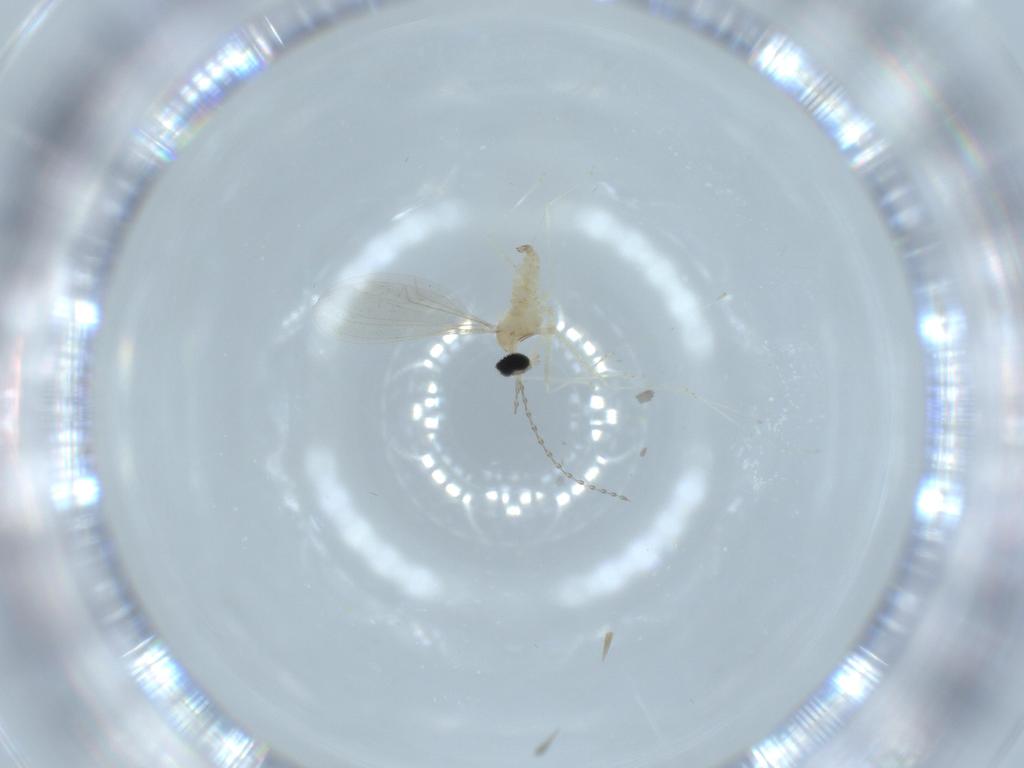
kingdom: Animalia
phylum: Arthropoda
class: Insecta
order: Diptera
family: Cecidomyiidae
